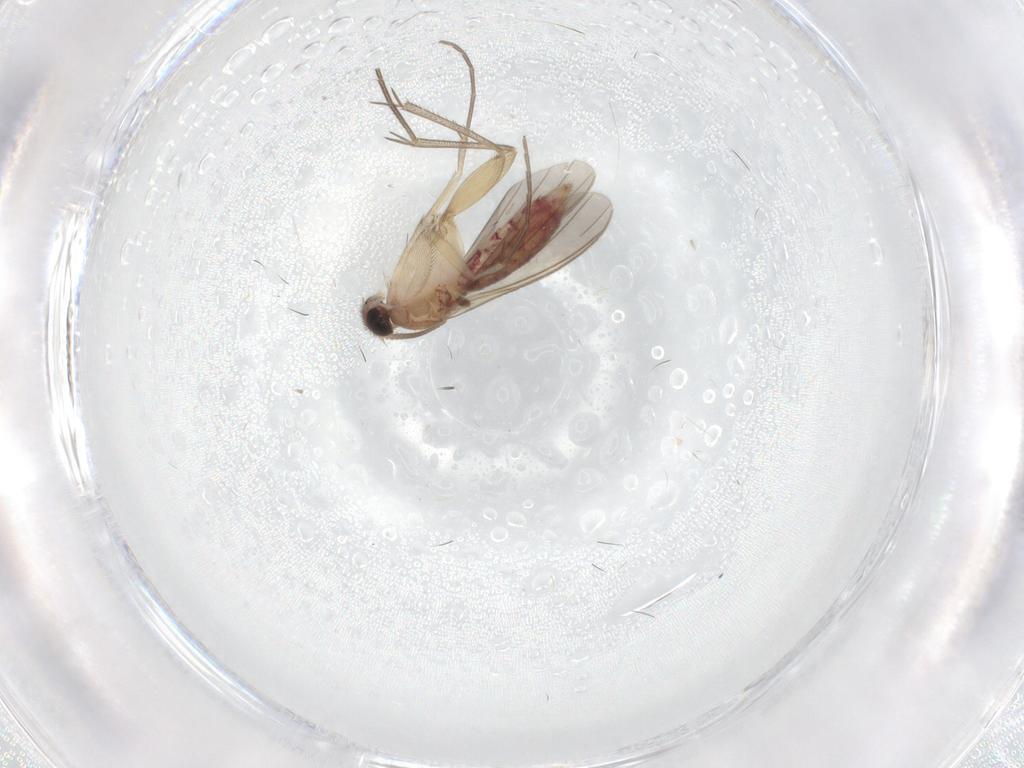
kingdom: Animalia
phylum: Arthropoda
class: Insecta
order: Diptera
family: Mycetophilidae
